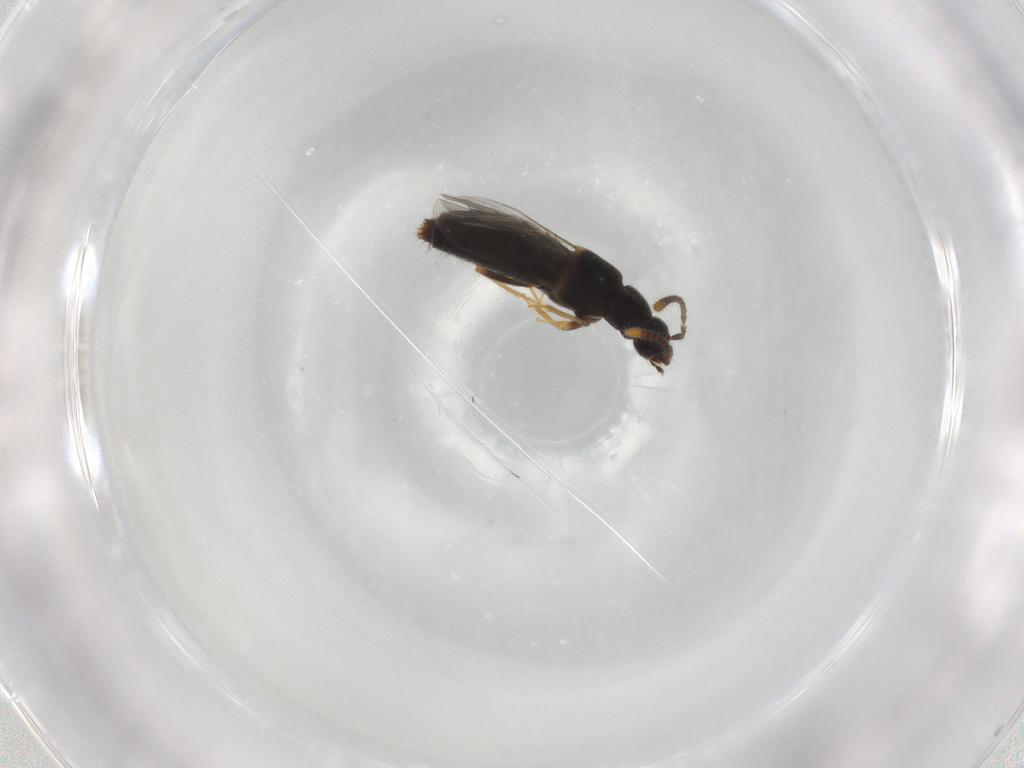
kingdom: Animalia
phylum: Arthropoda
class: Insecta
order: Coleoptera
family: Staphylinidae
